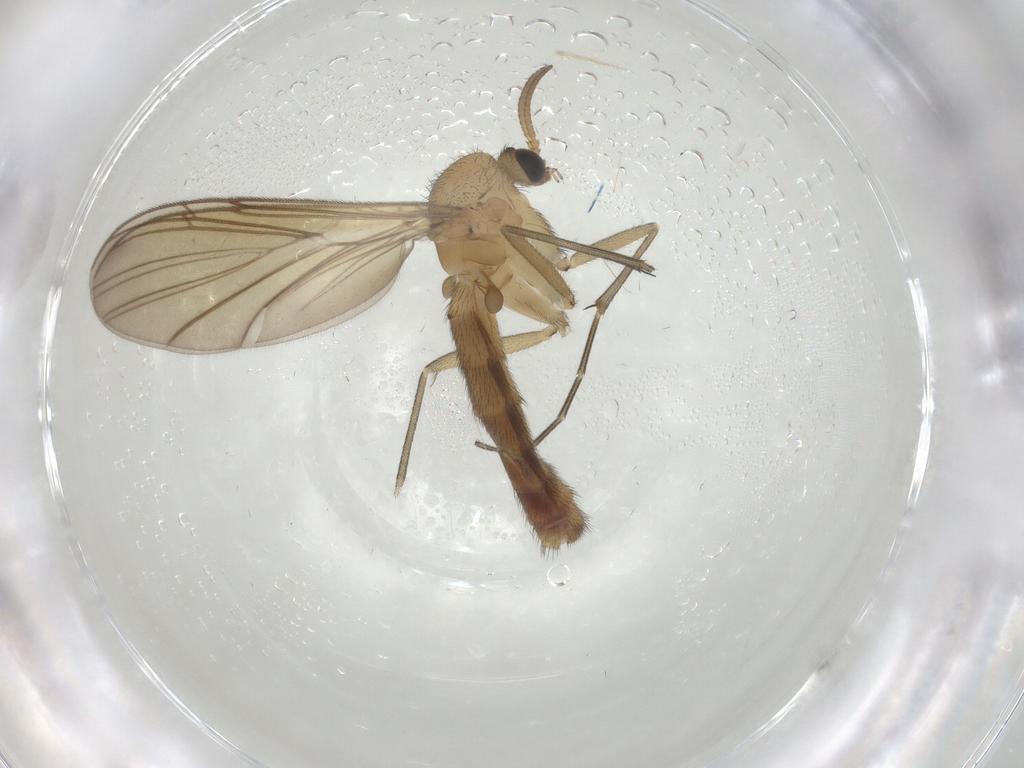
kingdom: Animalia
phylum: Arthropoda
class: Insecta
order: Diptera
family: Keroplatidae
